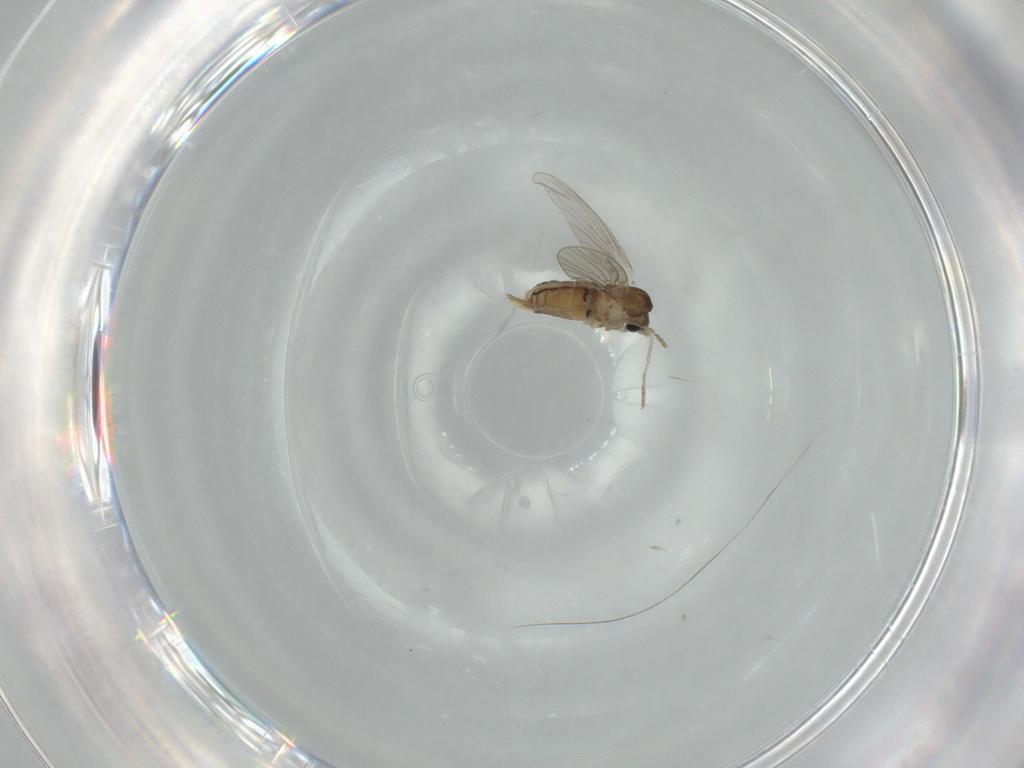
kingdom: Animalia
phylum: Arthropoda
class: Insecta
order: Diptera
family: Psychodidae
